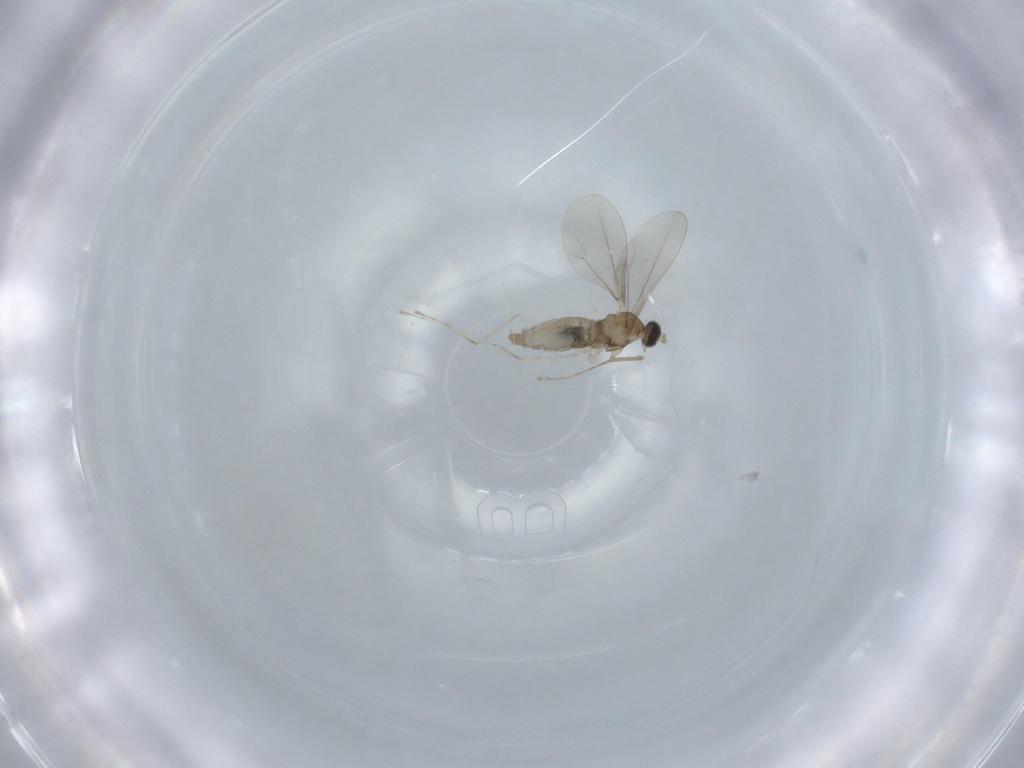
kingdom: Animalia
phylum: Arthropoda
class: Insecta
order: Diptera
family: Cecidomyiidae
